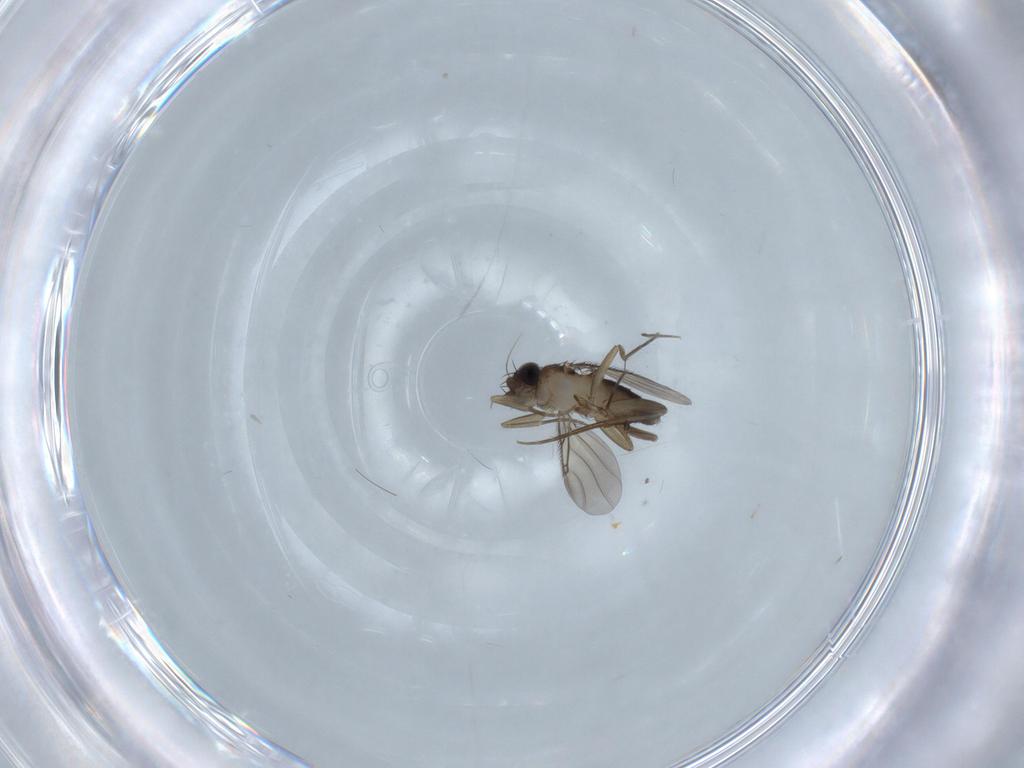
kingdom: Animalia
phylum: Arthropoda
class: Insecta
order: Diptera
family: Phoridae
